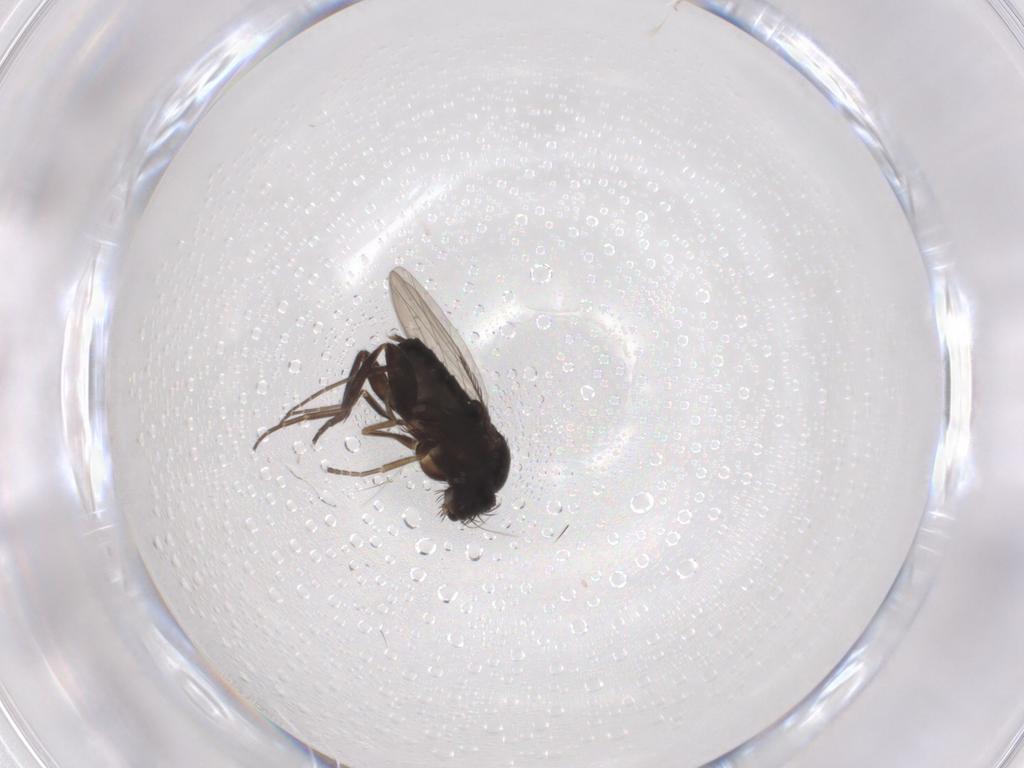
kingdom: Animalia
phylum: Arthropoda
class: Insecta
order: Diptera
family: Phoridae
